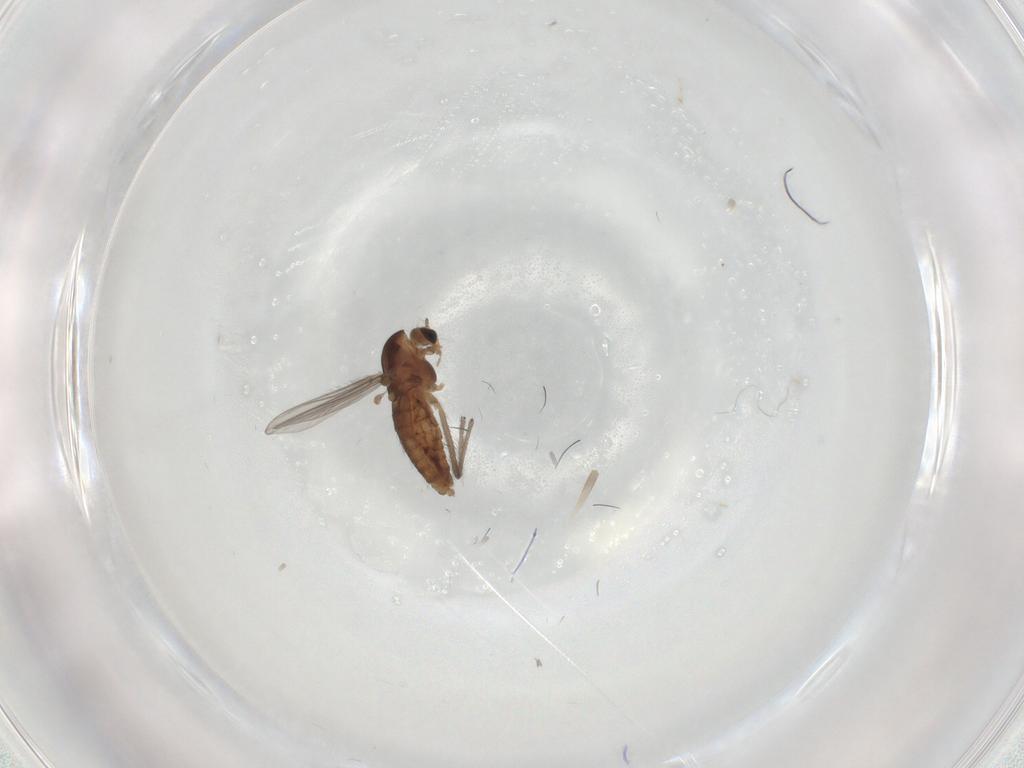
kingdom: Animalia
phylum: Arthropoda
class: Insecta
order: Diptera
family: Chironomidae
